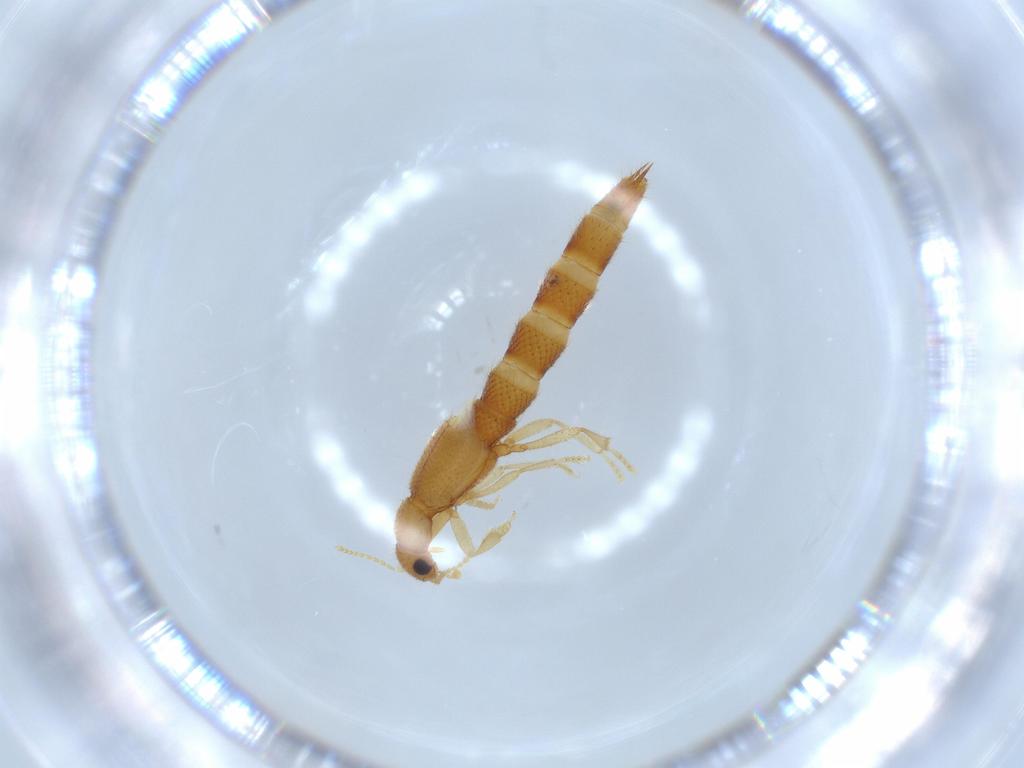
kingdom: Animalia
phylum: Arthropoda
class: Insecta
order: Coleoptera
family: Staphylinidae
